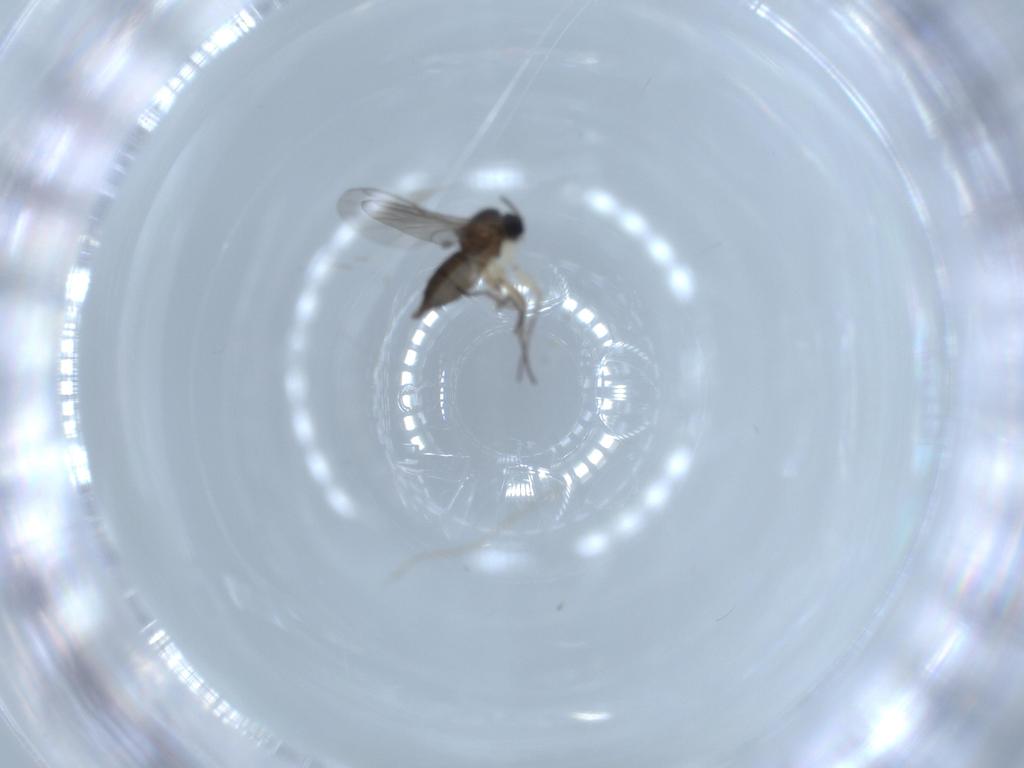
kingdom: Animalia
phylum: Arthropoda
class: Insecta
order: Diptera
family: Sciaridae
